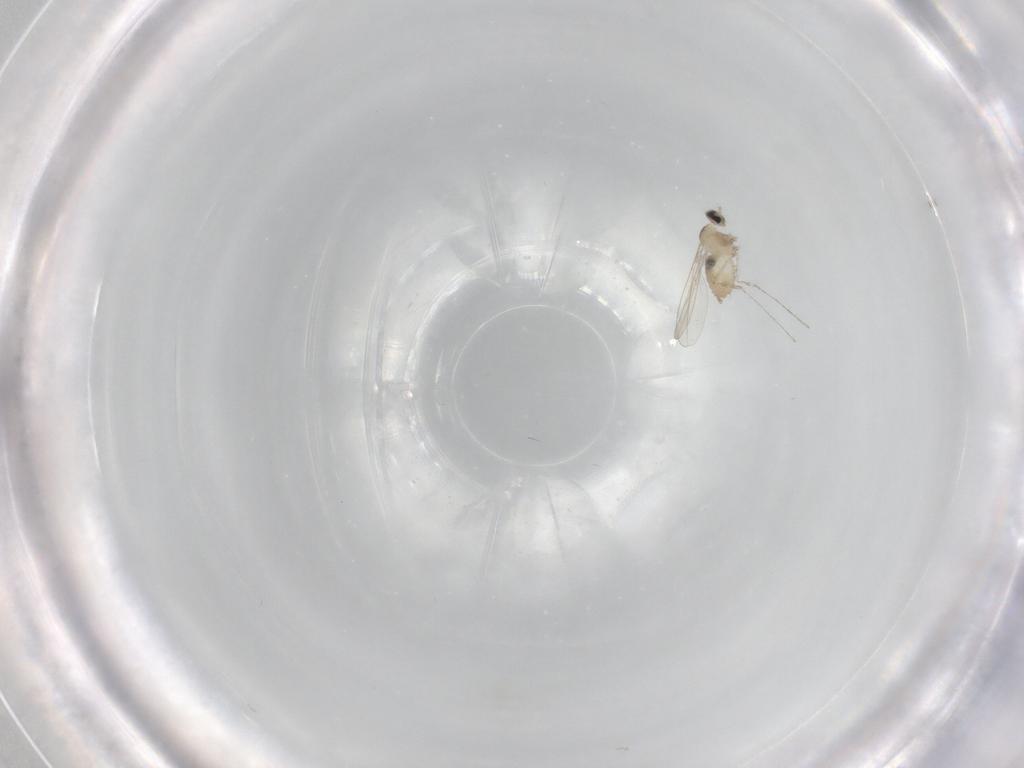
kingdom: Animalia
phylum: Arthropoda
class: Insecta
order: Diptera
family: Cecidomyiidae
